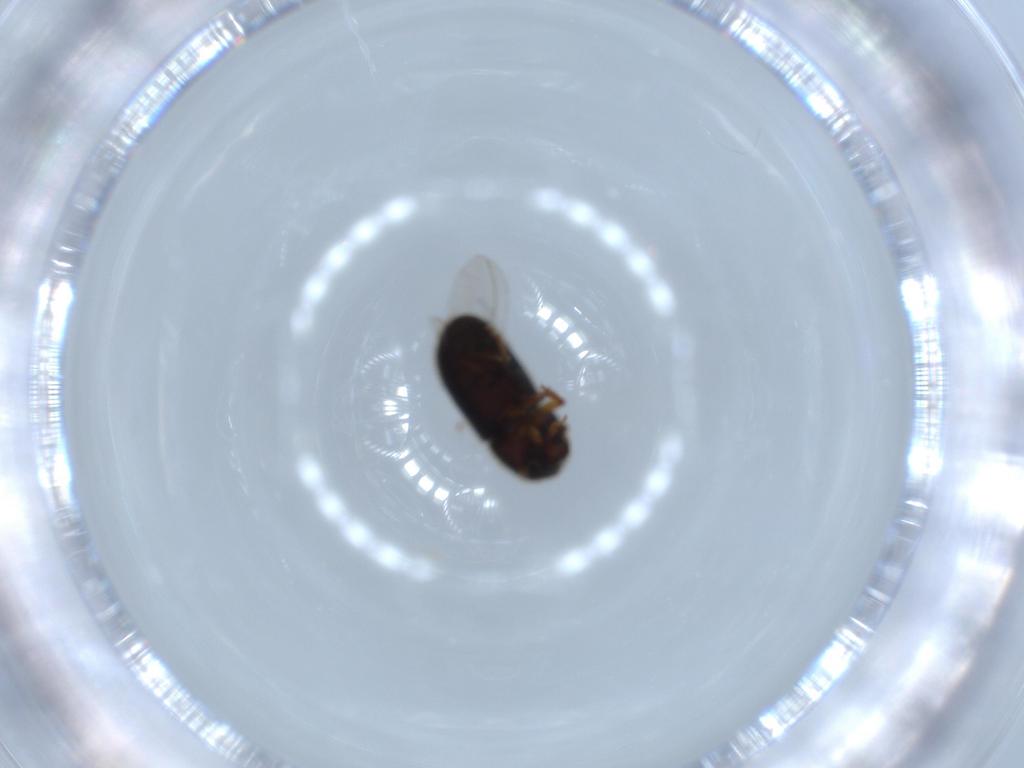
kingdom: Animalia
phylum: Arthropoda
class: Insecta
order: Coleoptera
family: Curculionidae
